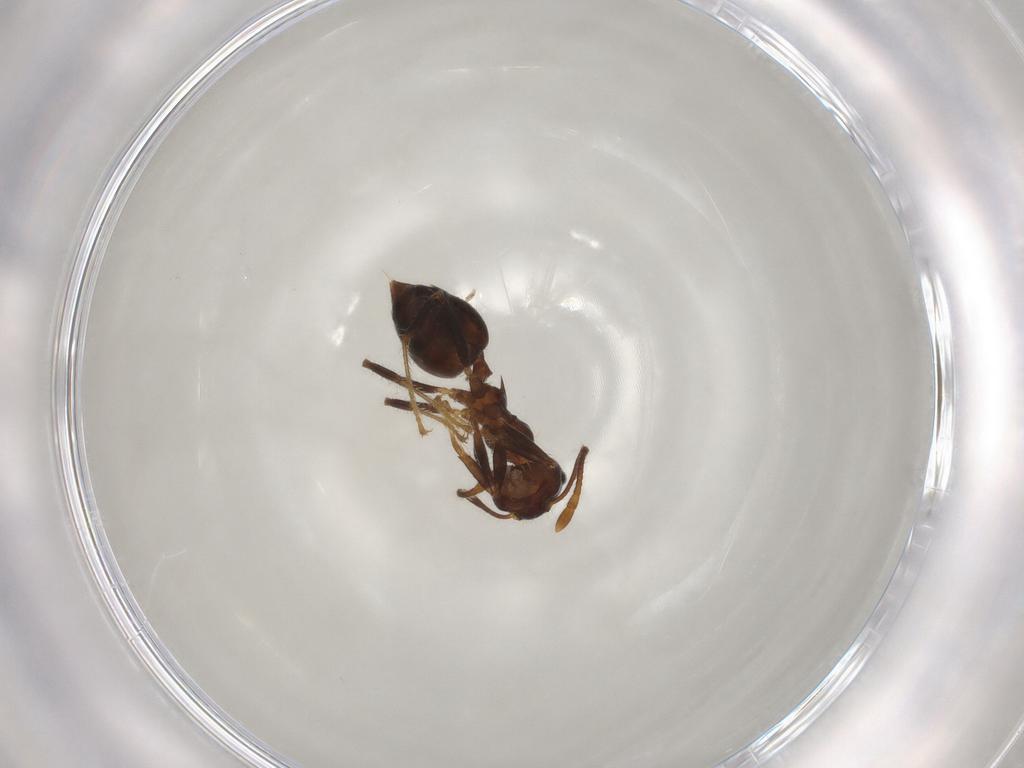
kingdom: Animalia
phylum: Arthropoda
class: Insecta
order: Hymenoptera
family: Formicidae
